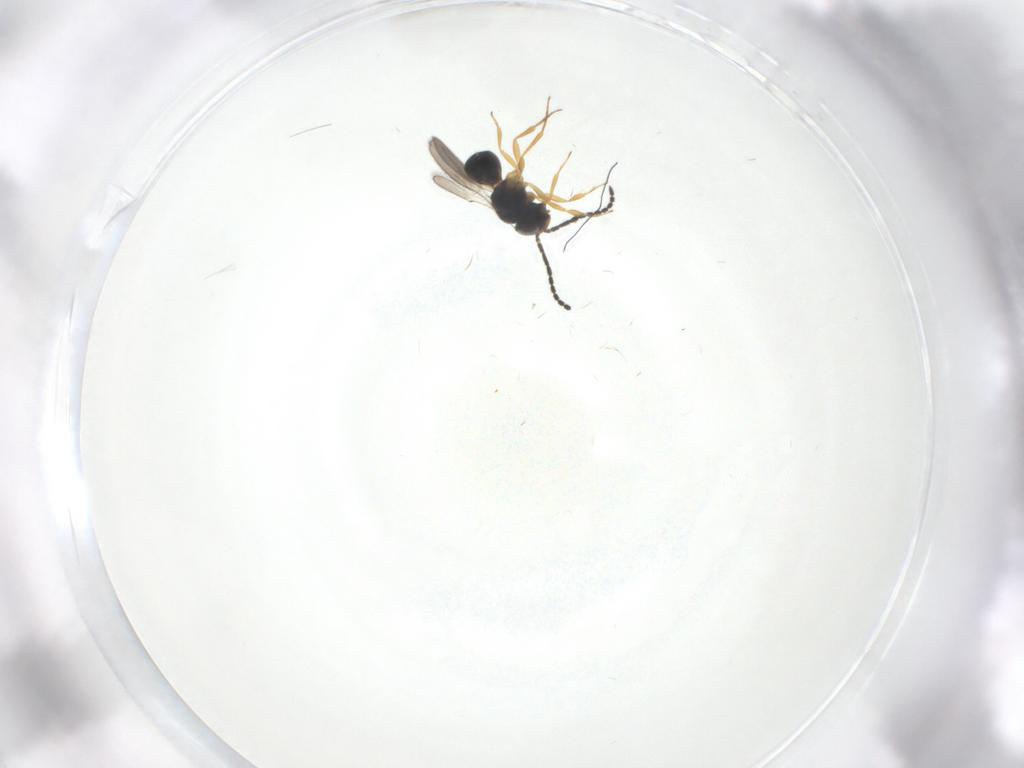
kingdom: Animalia
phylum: Arthropoda
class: Insecta
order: Hymenoptera
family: Scelionidae
